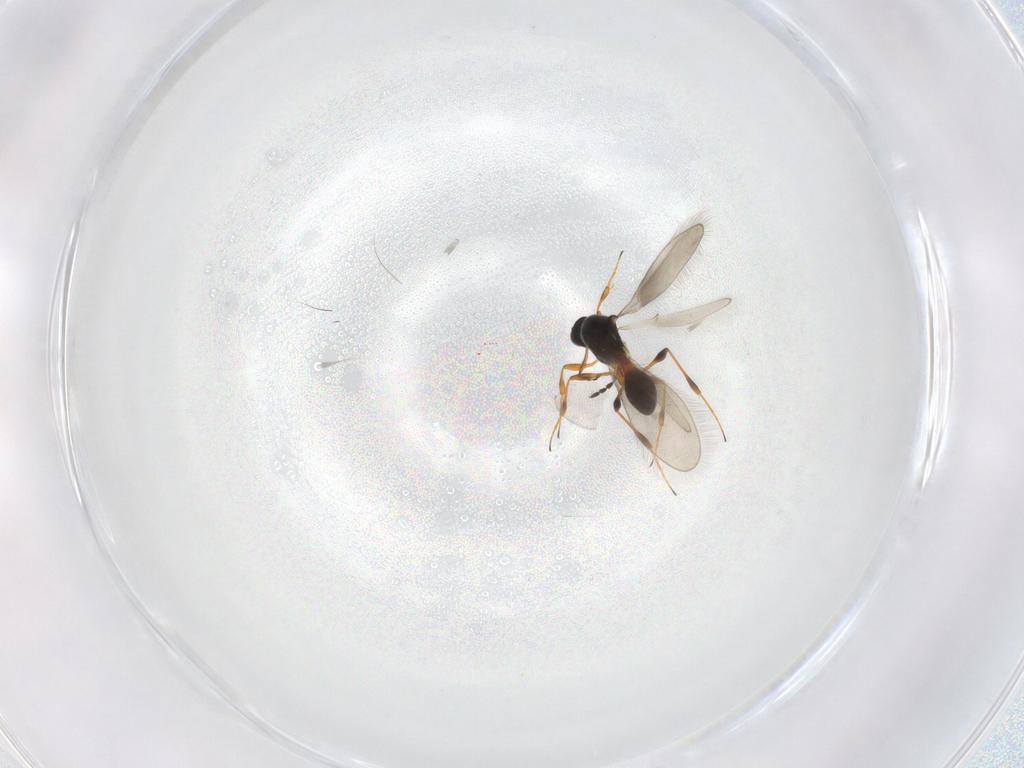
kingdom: Animalia
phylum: Arthropoda
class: Insecta
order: Hymenoptera
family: Platygastridae
